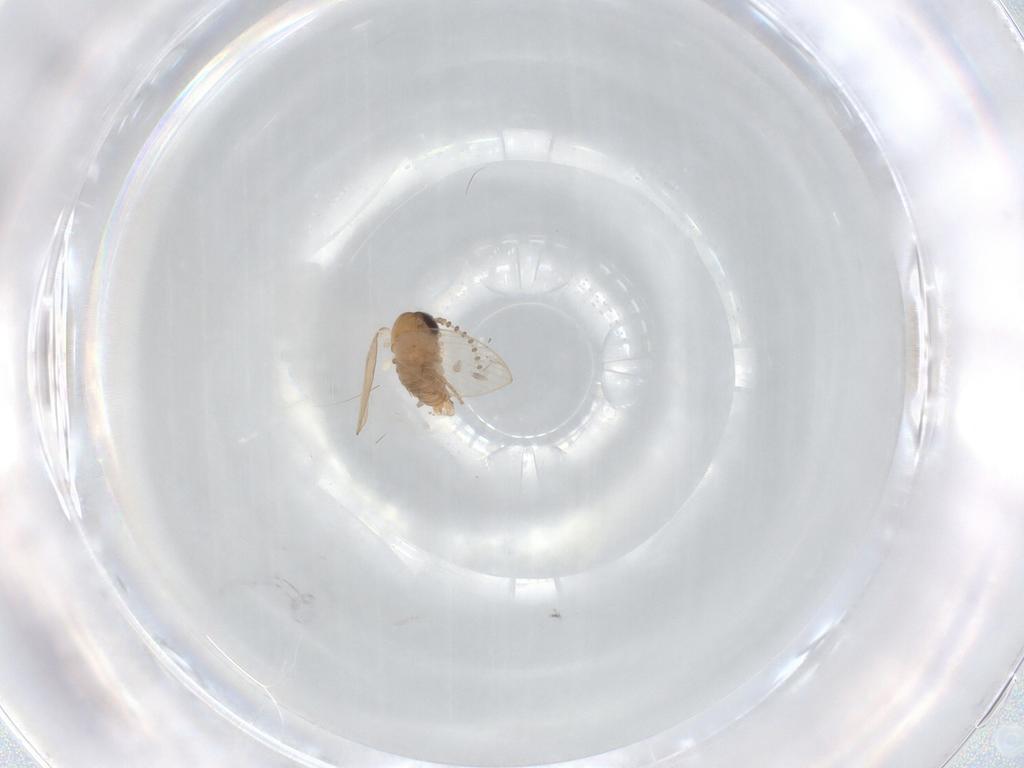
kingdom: Animalia
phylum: Arthropoda
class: Insecta
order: Diptera
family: Psychodidae
